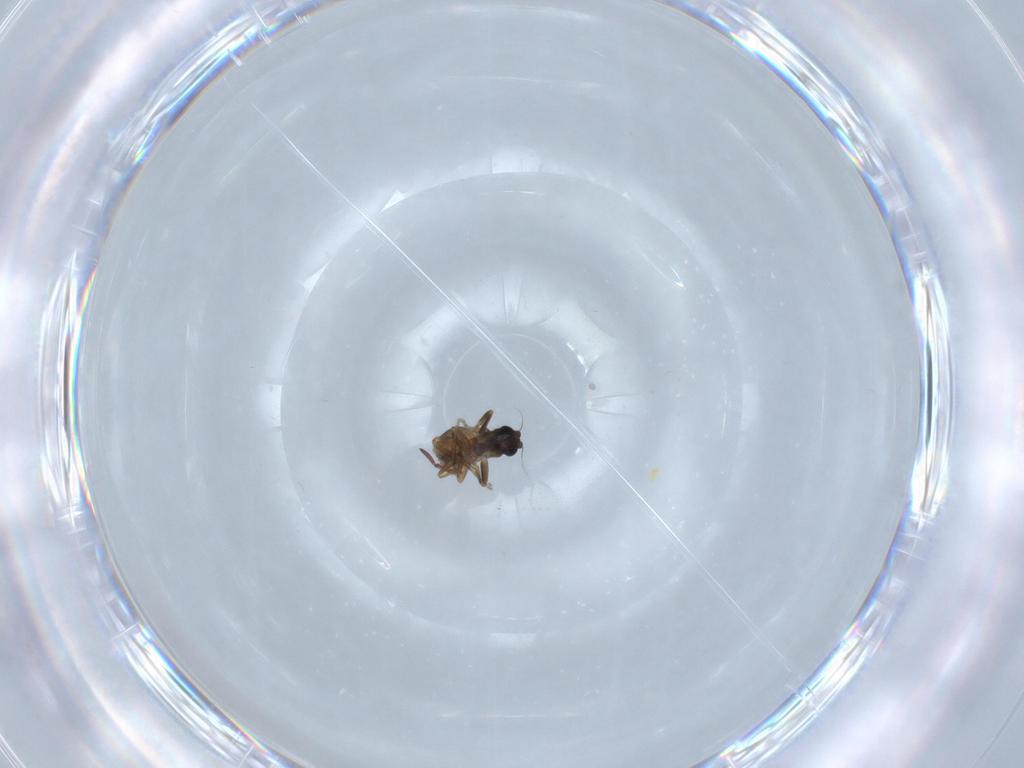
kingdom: Animalia
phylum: Arthropoda
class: Insecta
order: Diptera
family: Phoridae
